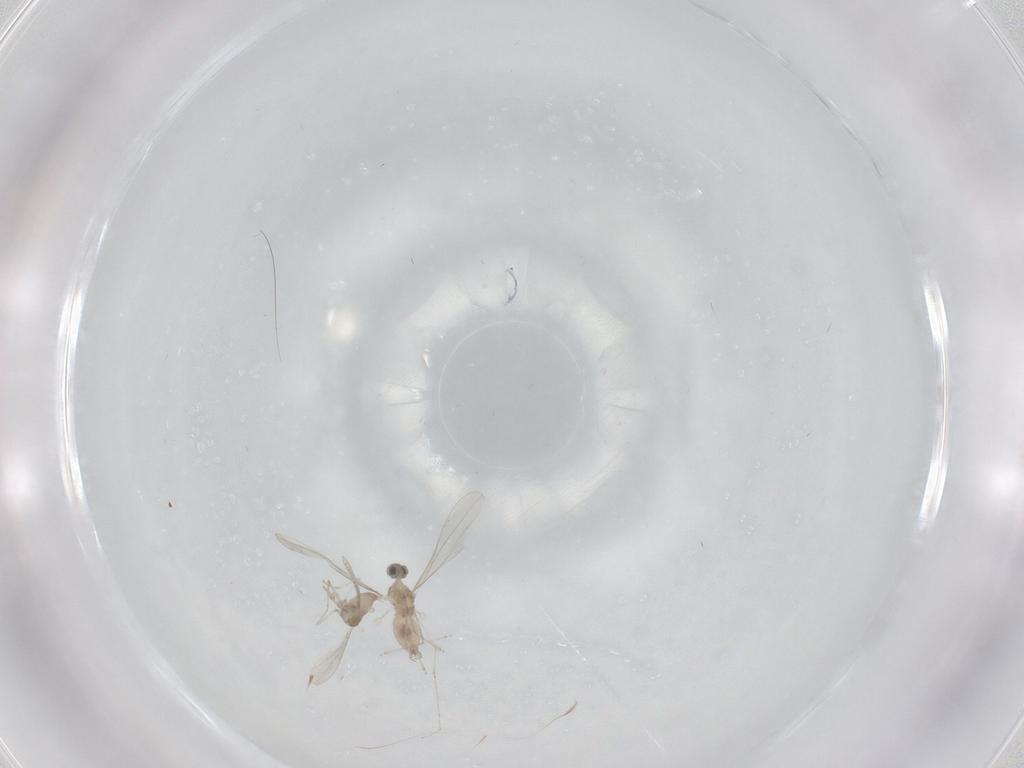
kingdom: Animalia
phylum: Arthropoda
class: Insecta
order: Diptera
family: Cecidomyiidae
